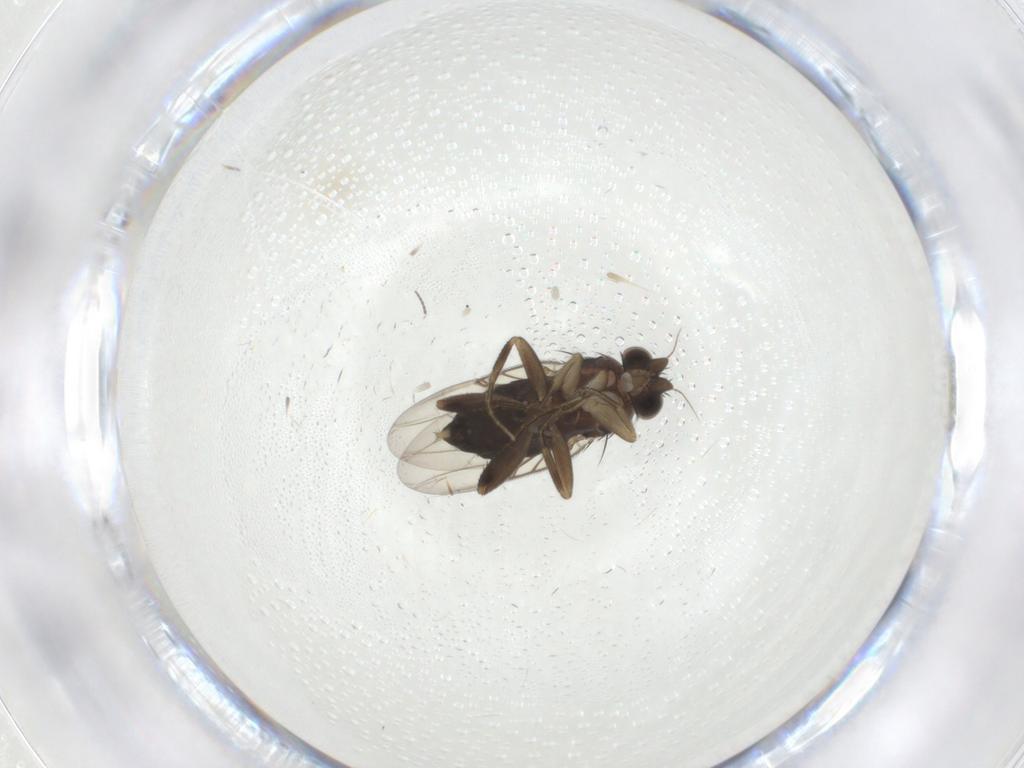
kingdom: Animalia
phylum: Arthropoda
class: Insecta
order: Diptera
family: Phoridae
